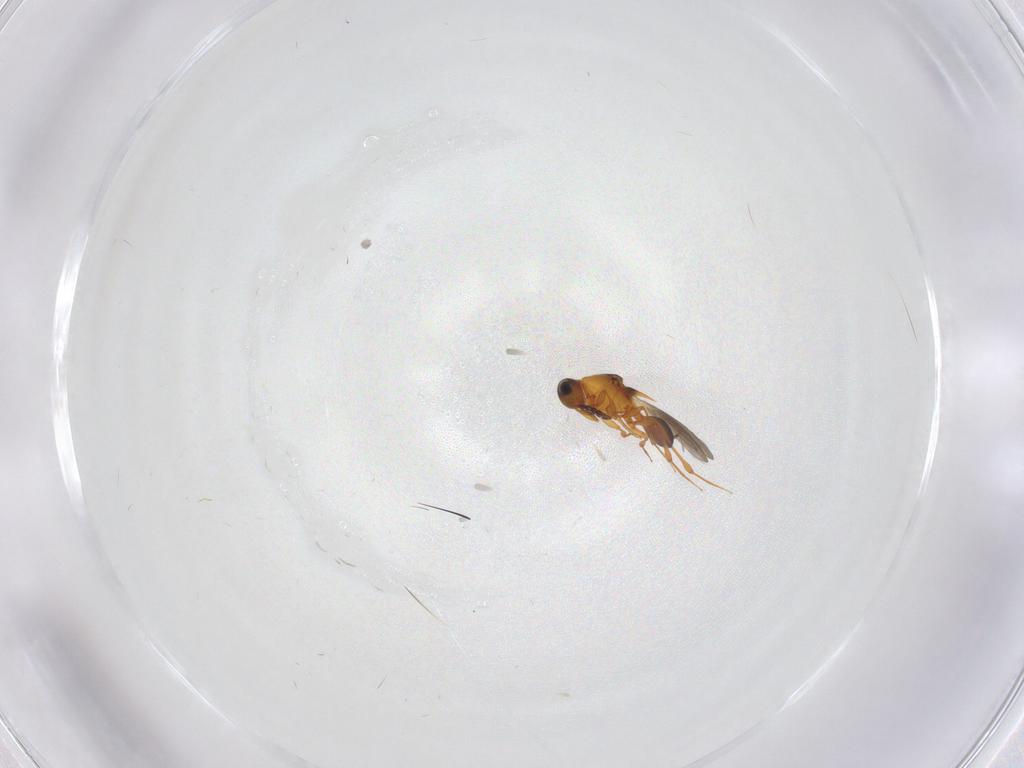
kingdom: Animalia
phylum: Arthropoda
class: Insecta
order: Hymenoptera
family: Platygastridae
